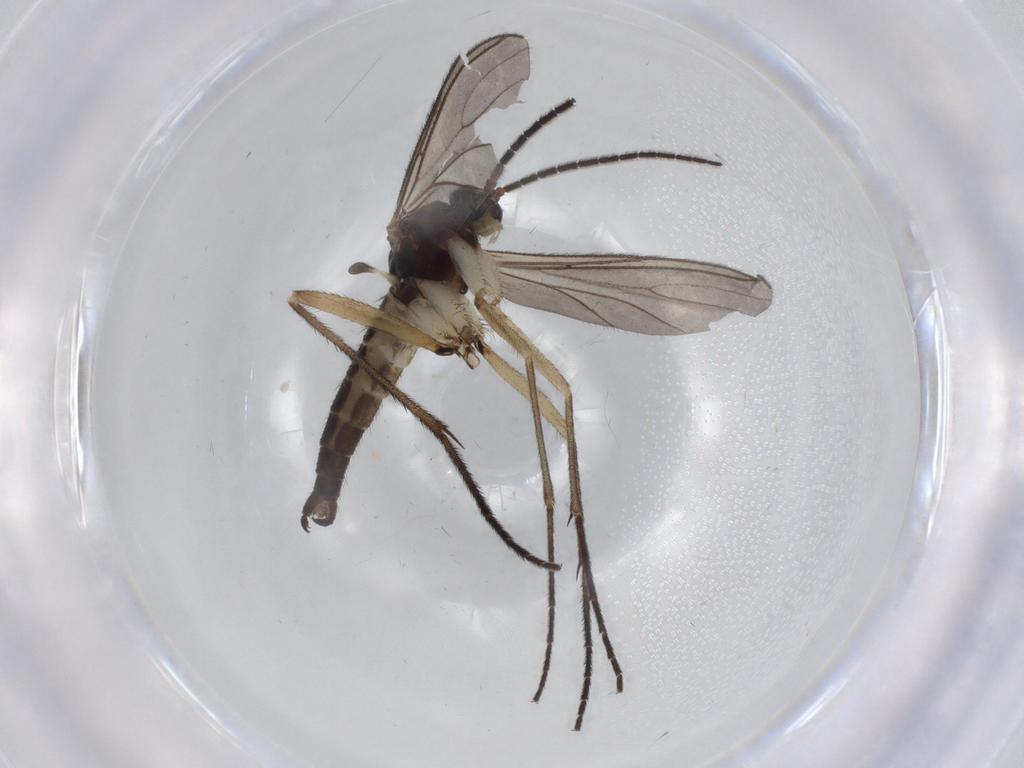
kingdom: Animalia
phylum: Arthropoda
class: Insecta
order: Diptera
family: Sciaridae
